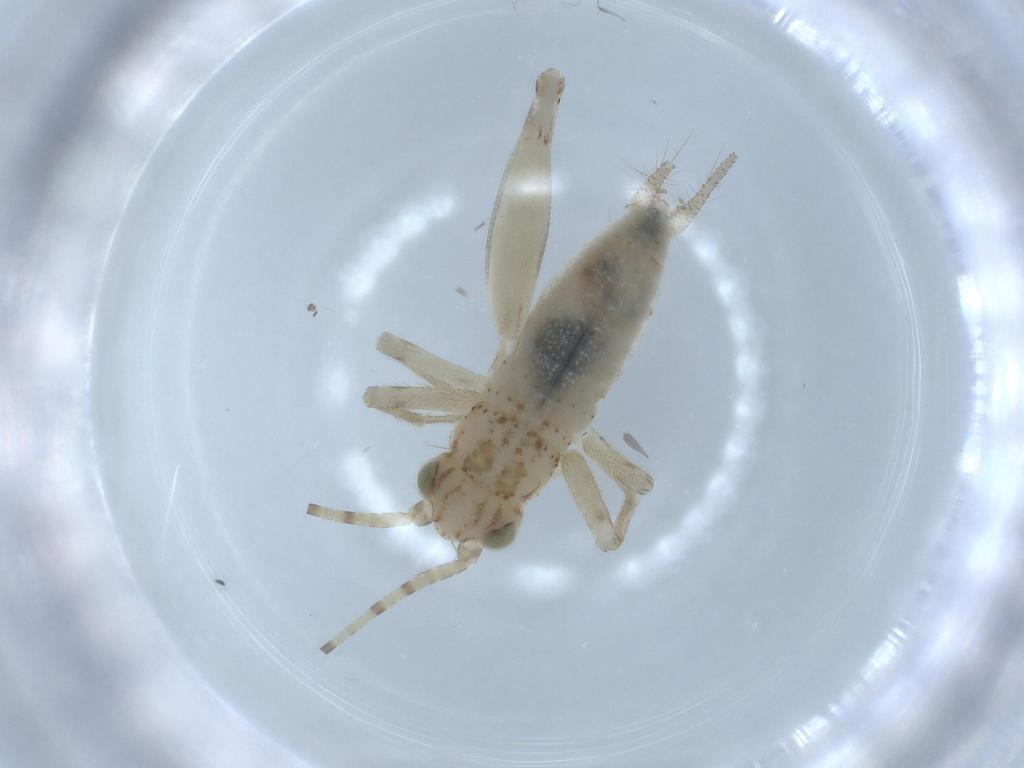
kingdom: Animalia
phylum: Arthropoda
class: Insecta
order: Orthoptera
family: Trigonidiidae
